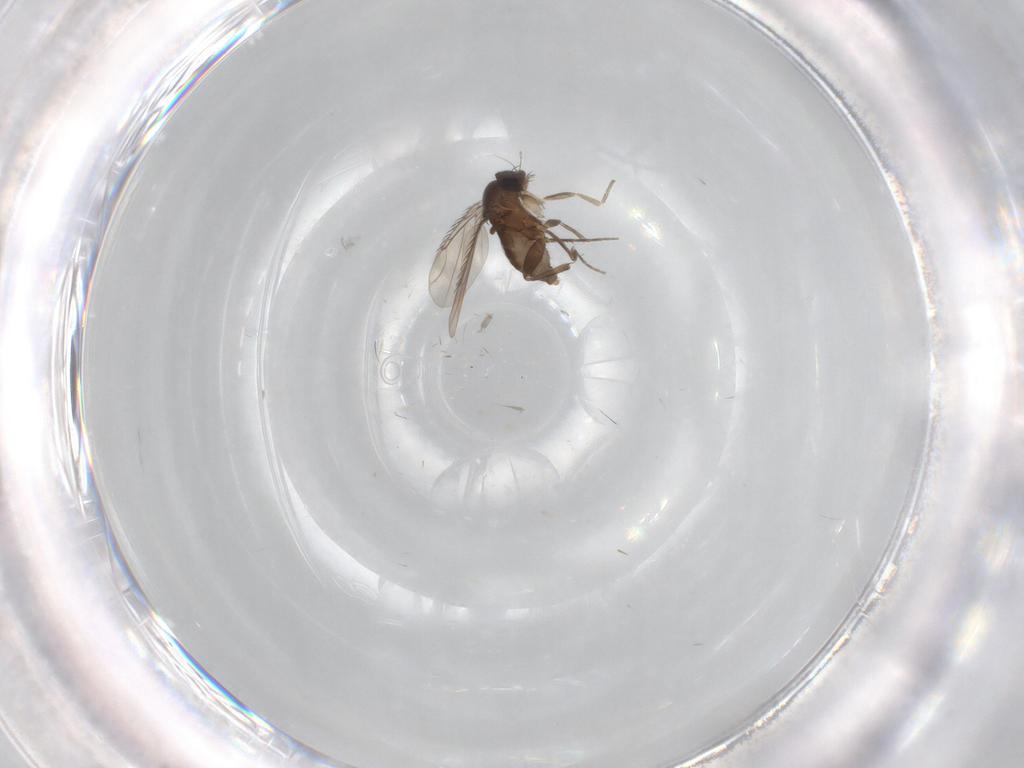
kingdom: Animalia
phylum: Arthropoda
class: Insecta
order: Diptera
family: Phoridae
